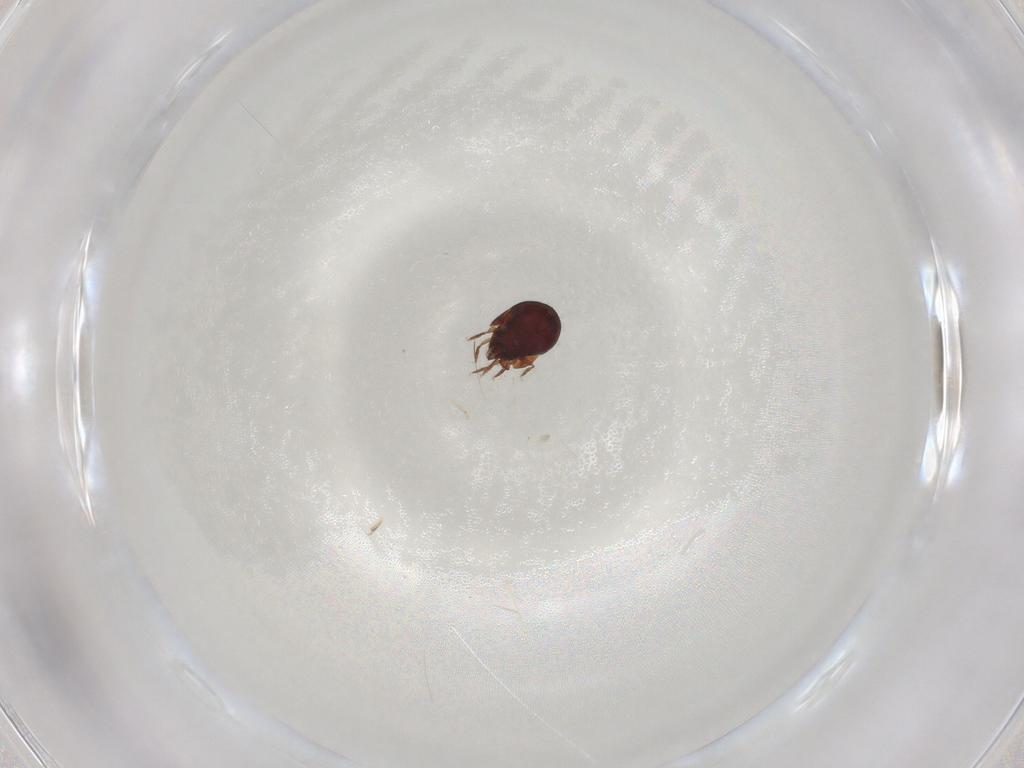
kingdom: Animalia
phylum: Arthropoda
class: Arachnida
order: Sarcoptiformes
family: Humerobatidae
